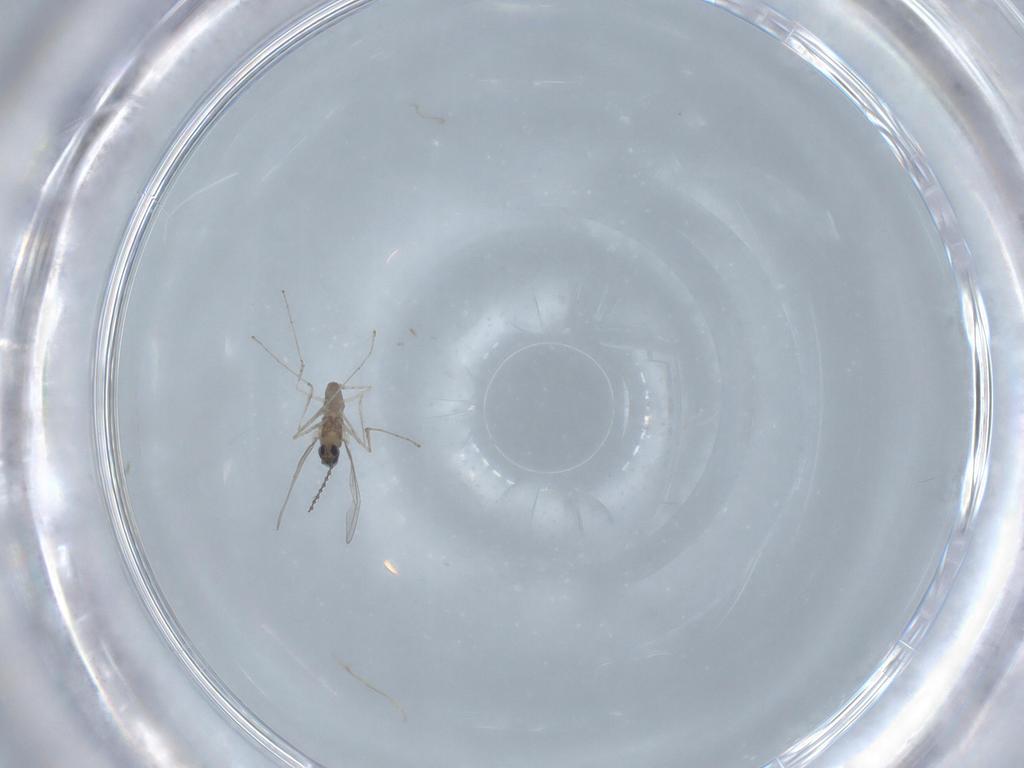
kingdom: Animalia
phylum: Arthropoda
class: Insecta
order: Diptera
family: Cecidomyiidae
